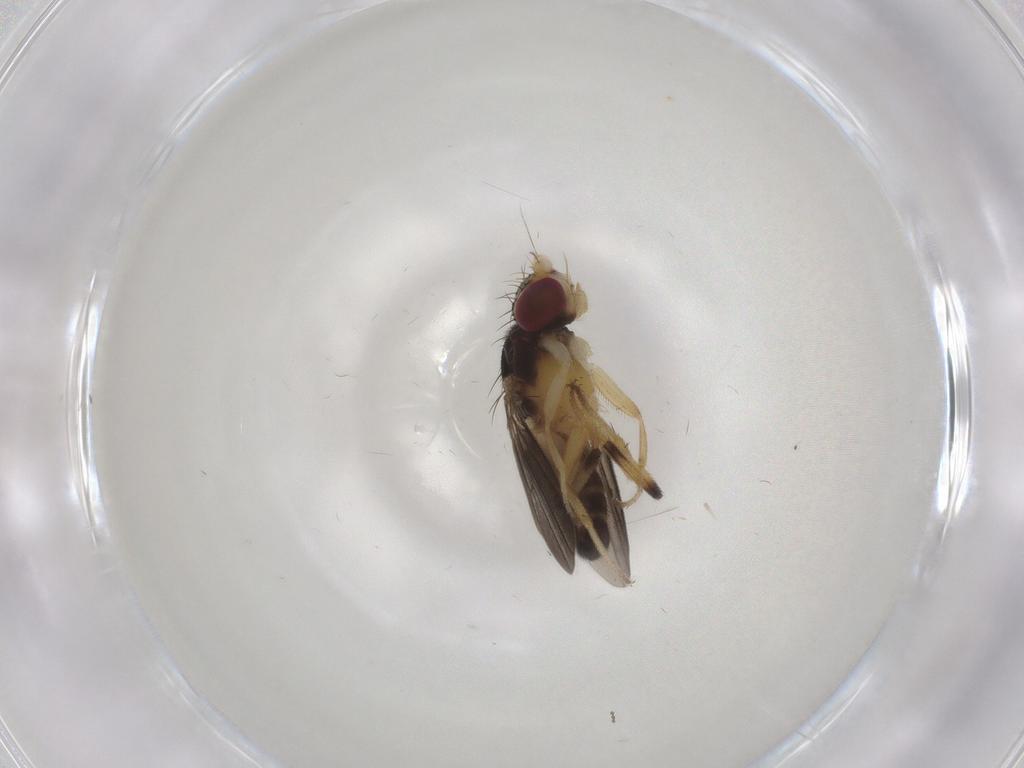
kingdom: Animalia
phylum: Arthropoda
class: Insecta
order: Diptera
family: Clusiidae
